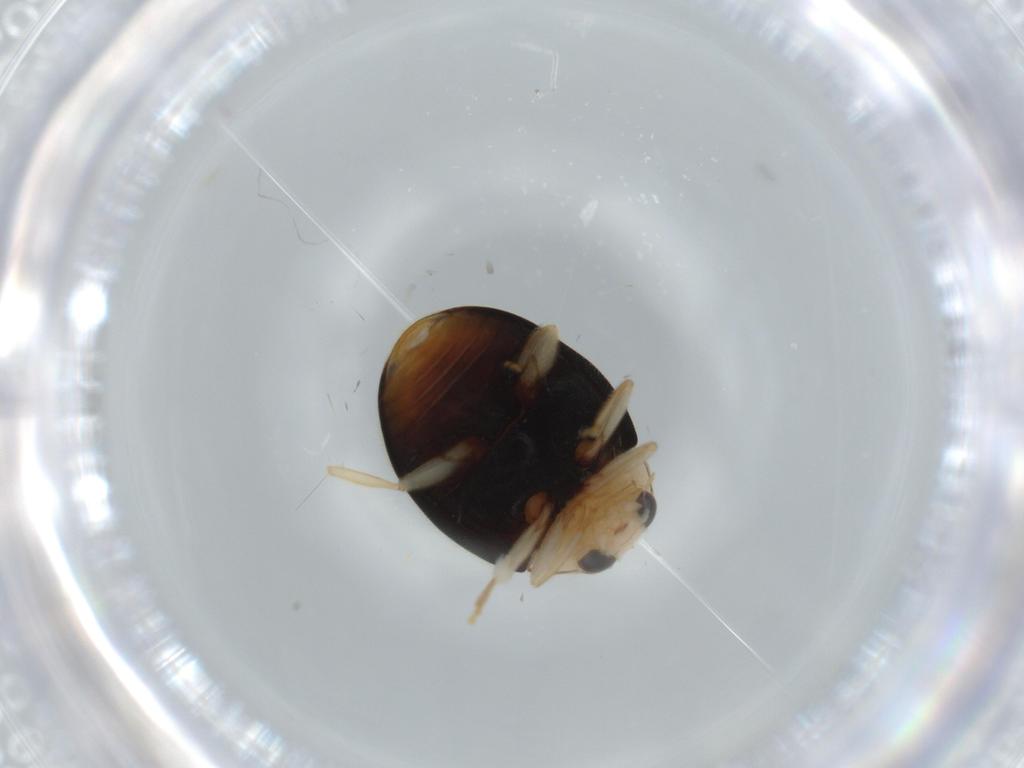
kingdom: Animalia
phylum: Arthropoda
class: Insecta
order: Coleoptera
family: Coccinellidae
